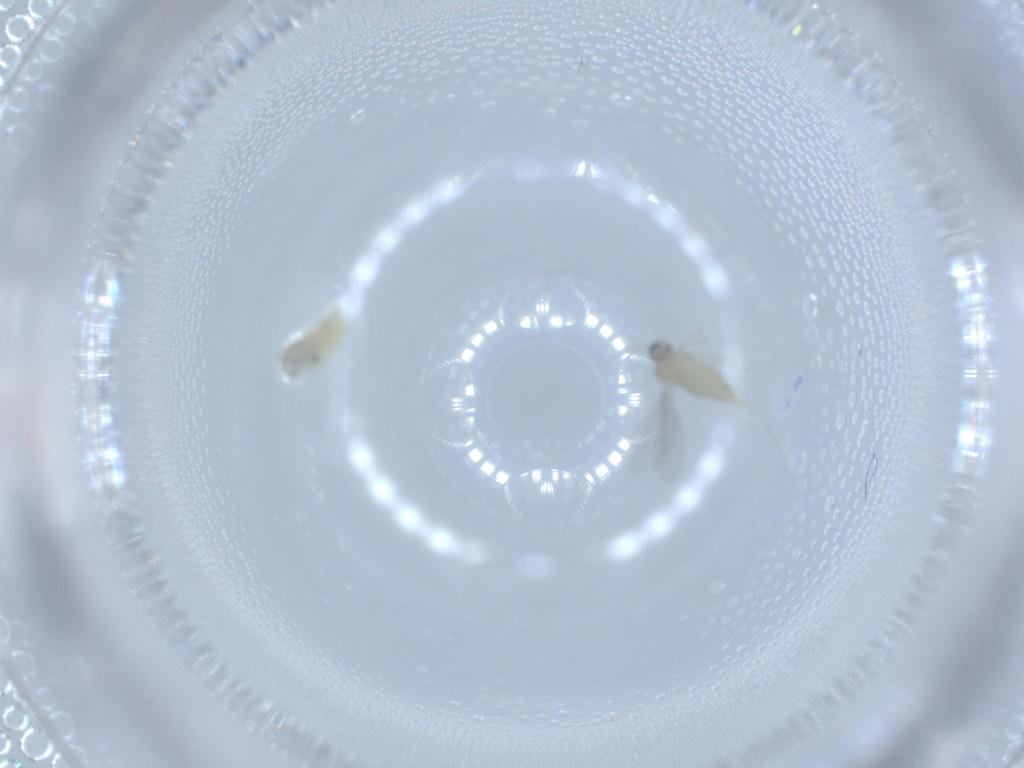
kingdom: Animalia
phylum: Arthropoda
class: Insecta
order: Diptera
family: Cecidomyiidae
